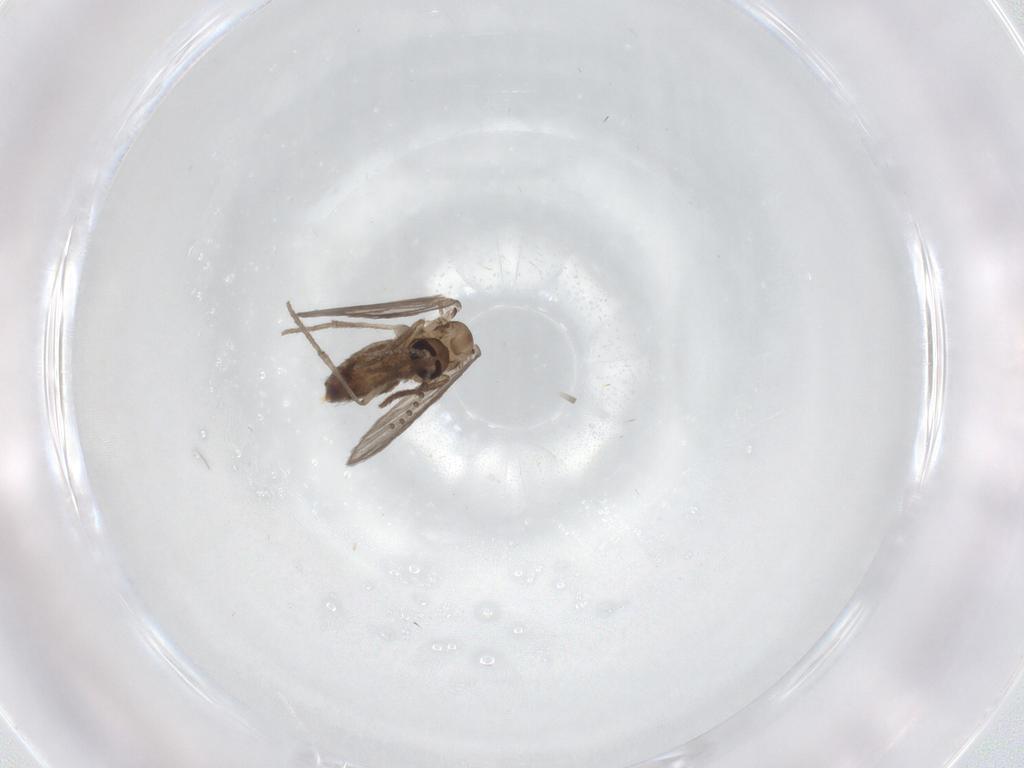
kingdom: Animalia
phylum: Arthropoda
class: Insecta
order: Diptera
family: Psychodidae
